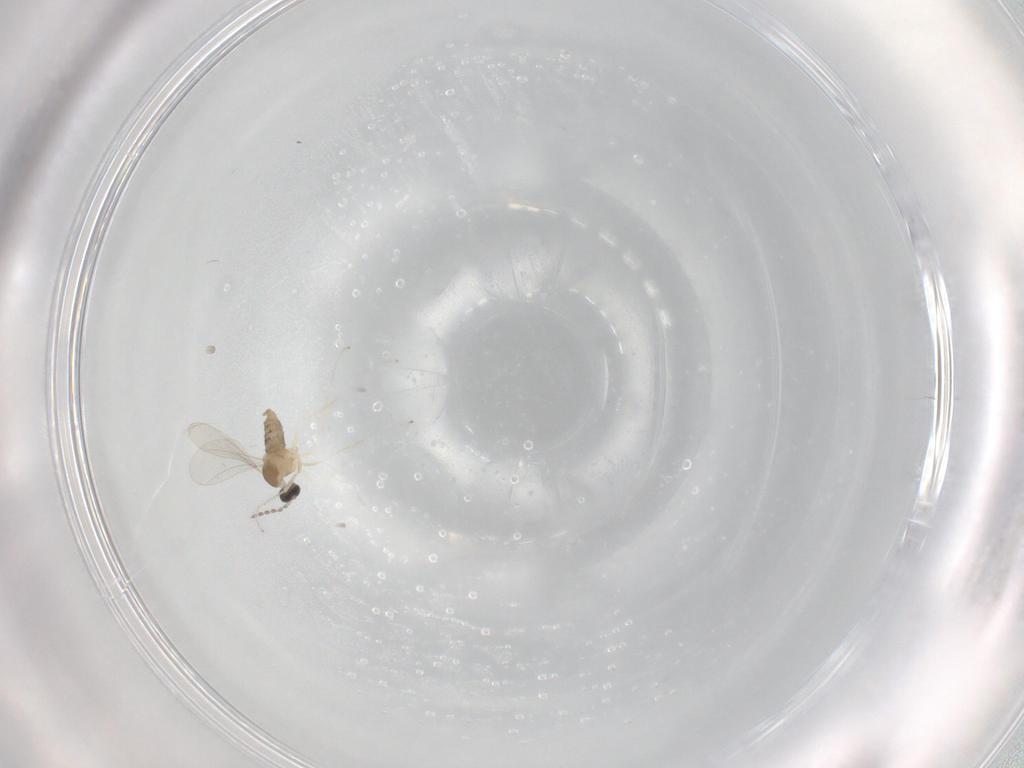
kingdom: Animalia
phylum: Arthropoda
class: Insecta
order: Diptera
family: Cecidomyiidae
